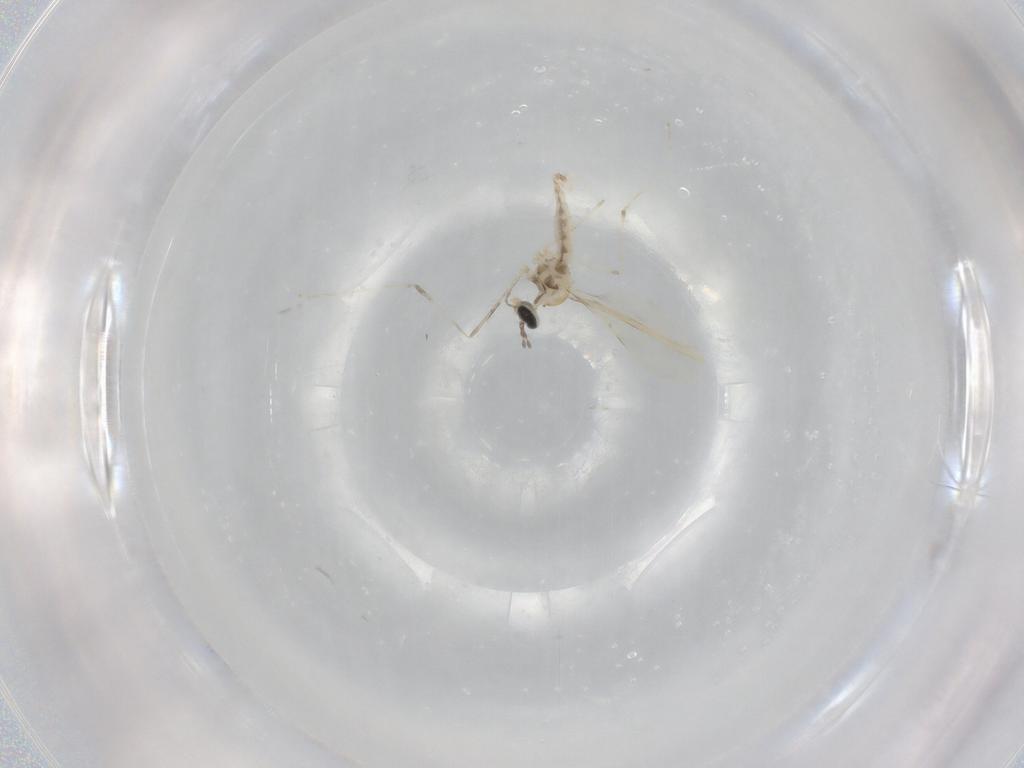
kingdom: Animalia
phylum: Arthropoda
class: Insecta
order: Diptera
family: Cecidomyiidae
